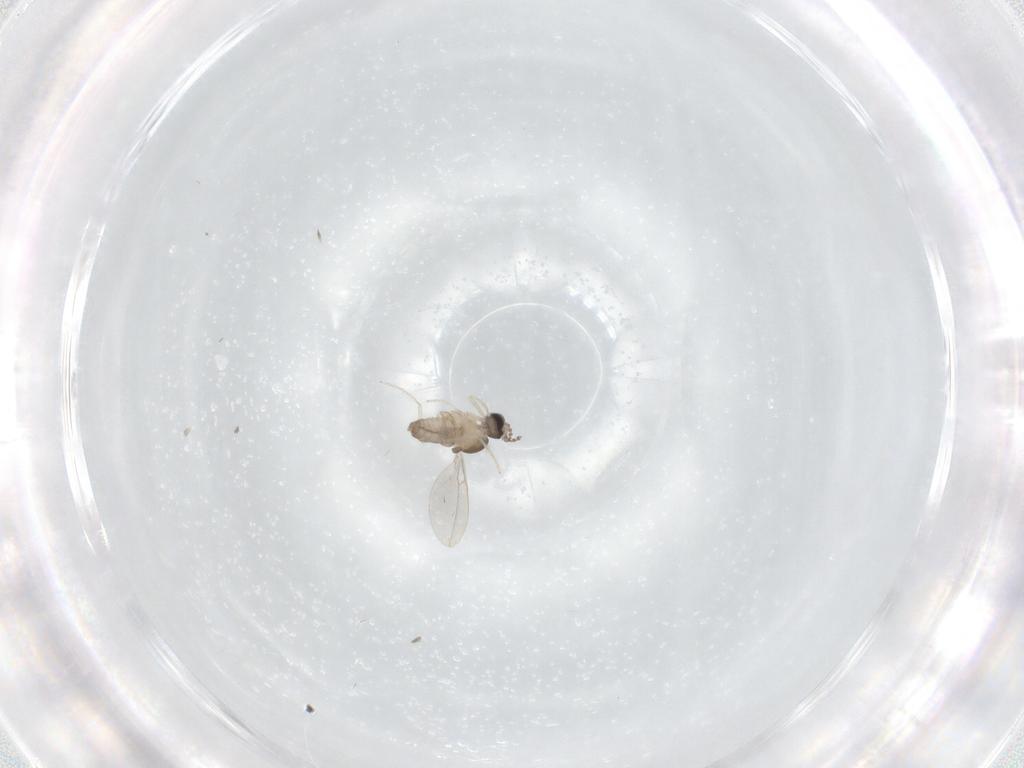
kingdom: Animalia
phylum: Arthropoda
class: Insecta
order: Diptera
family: Cecidomyiidae
